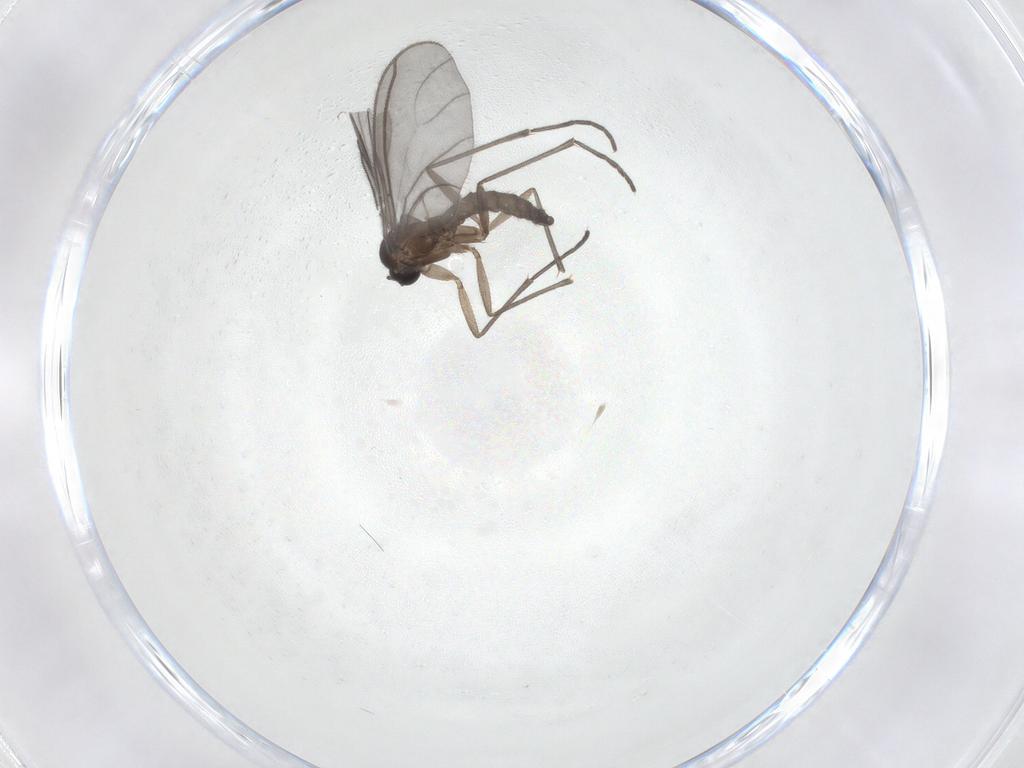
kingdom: Animalia
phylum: Arthropoda
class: Insecta
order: Diptera
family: Sciaridae
